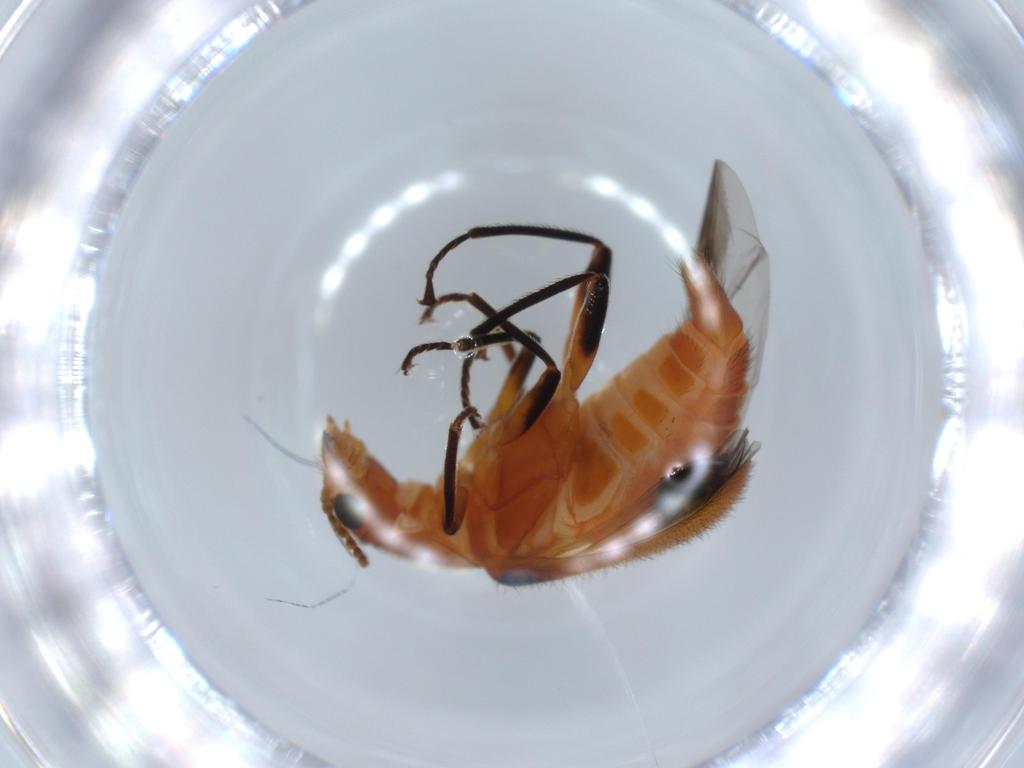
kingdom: Animalia
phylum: Arthropoda
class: Insecta
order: Coleoptera
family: Melyridae
